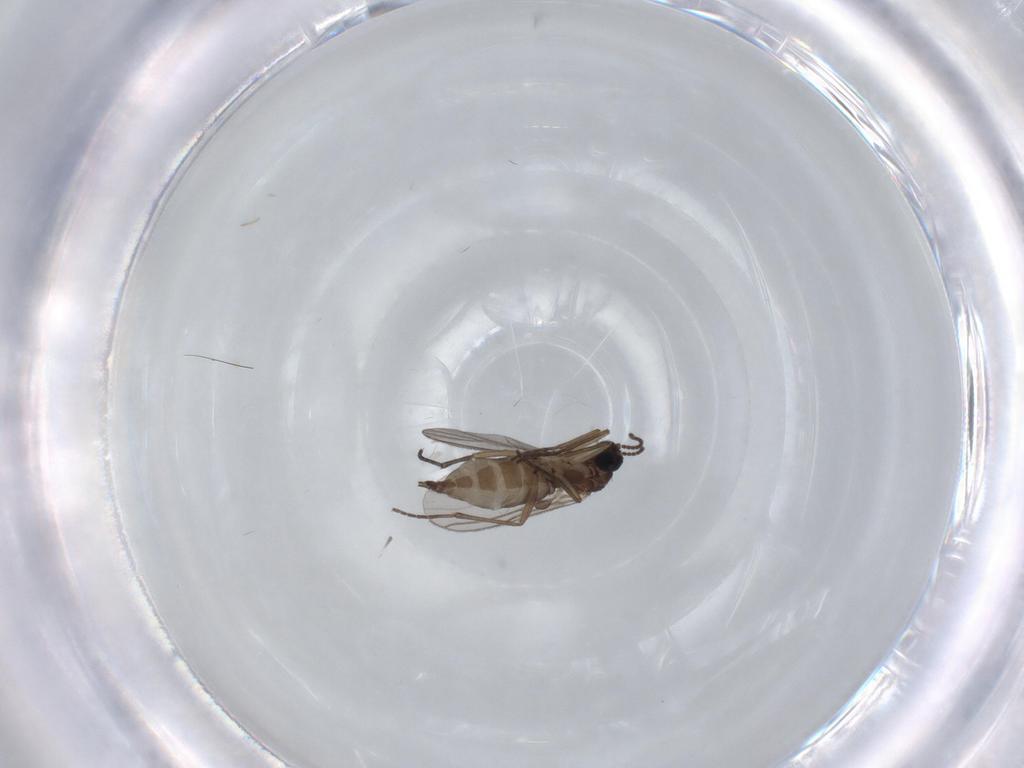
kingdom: Animalia
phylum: Arthropoda
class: Insecta
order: Diptera
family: Sciaridae
